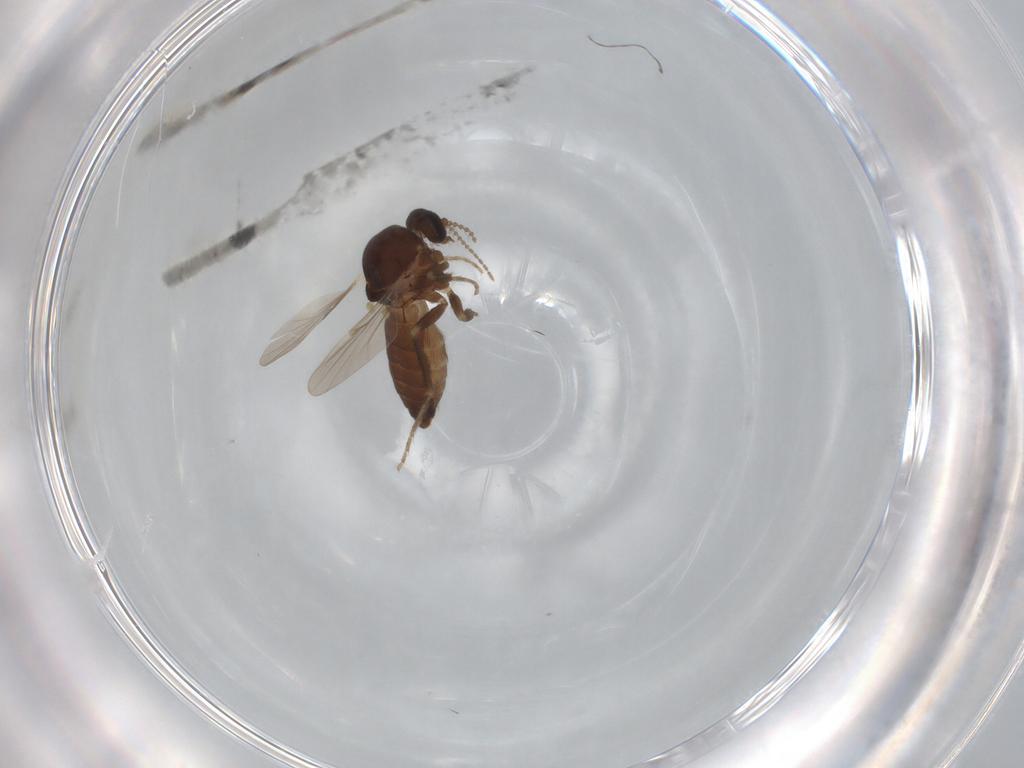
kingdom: Animalia
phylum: Arthropoda
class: Insecta
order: Diptera
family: Ceratopogonidae
